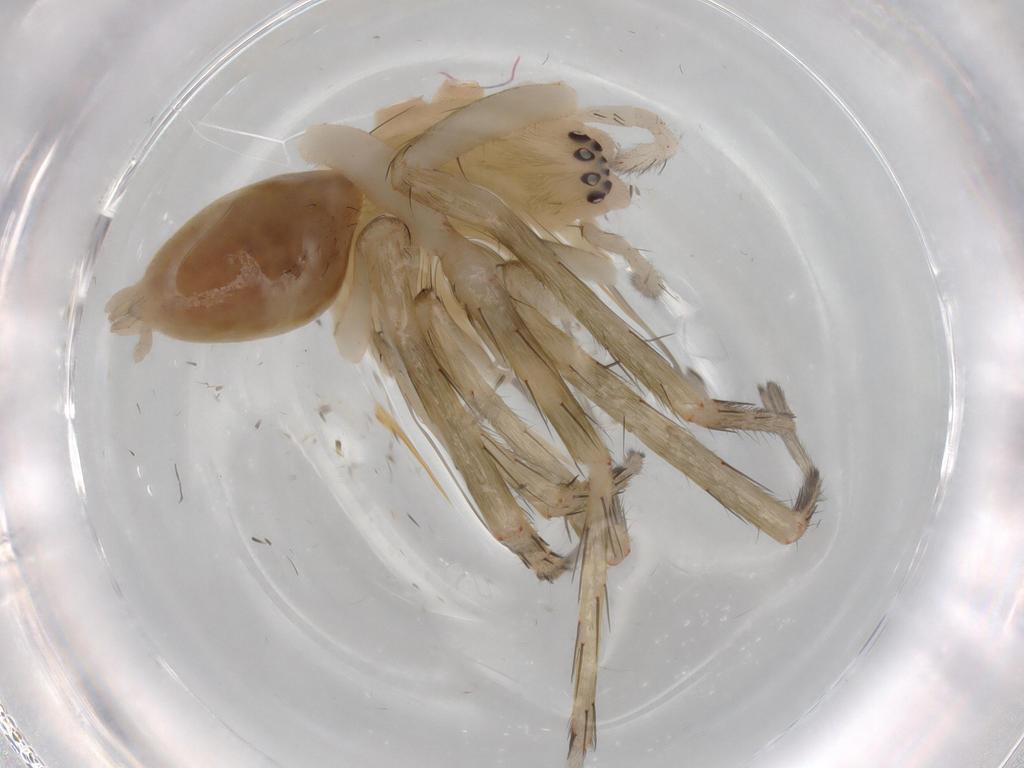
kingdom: Animalia
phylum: Arthropoda
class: Arachnida
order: Araneae
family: Anyphaenidae
